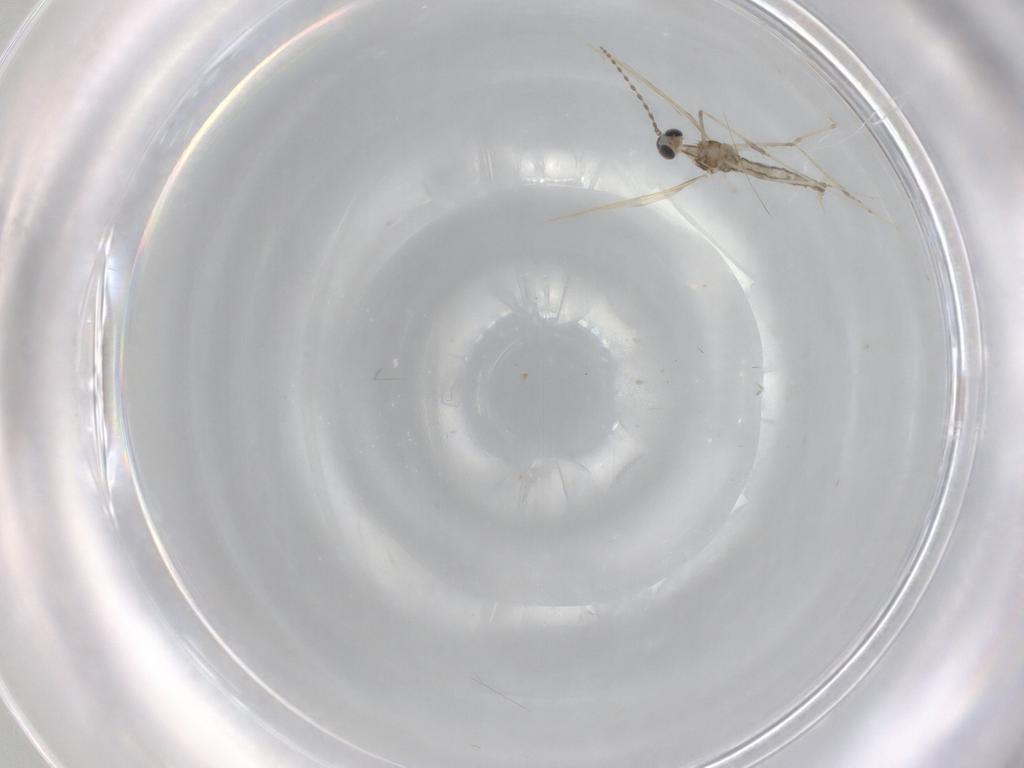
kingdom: Animalia
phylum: Arthropoda
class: Insecta
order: Diptera
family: Cecidomyiidae
